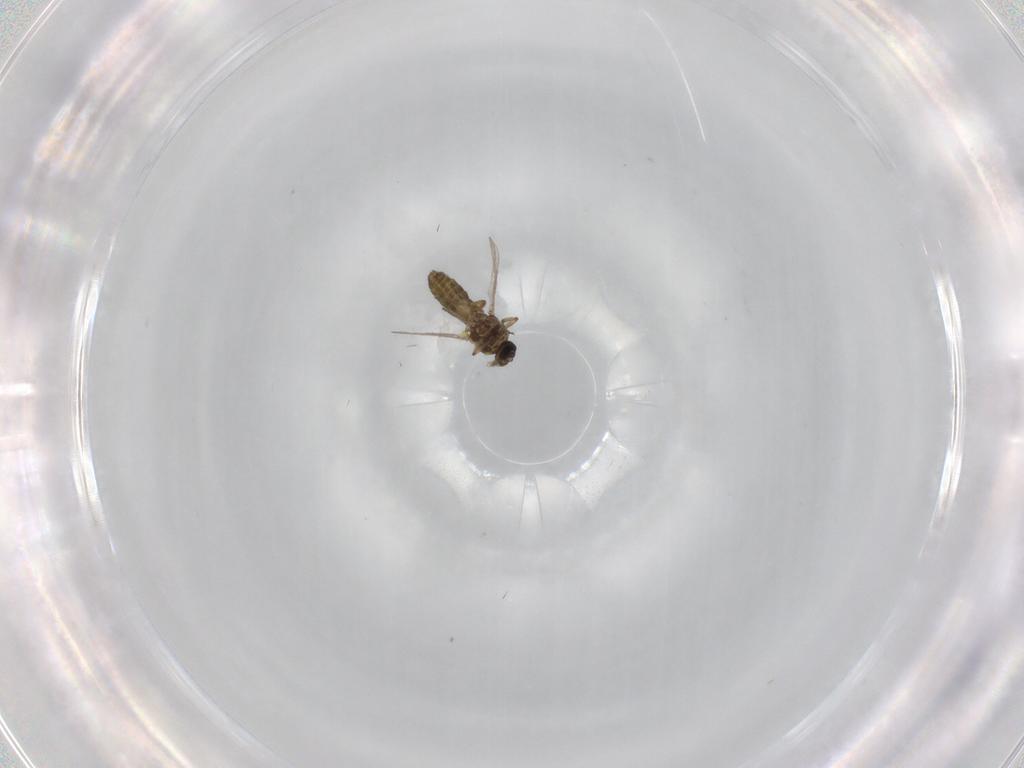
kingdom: Animalia
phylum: Arthropoda
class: Insecta
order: Diptera
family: Ceratopogonidae
